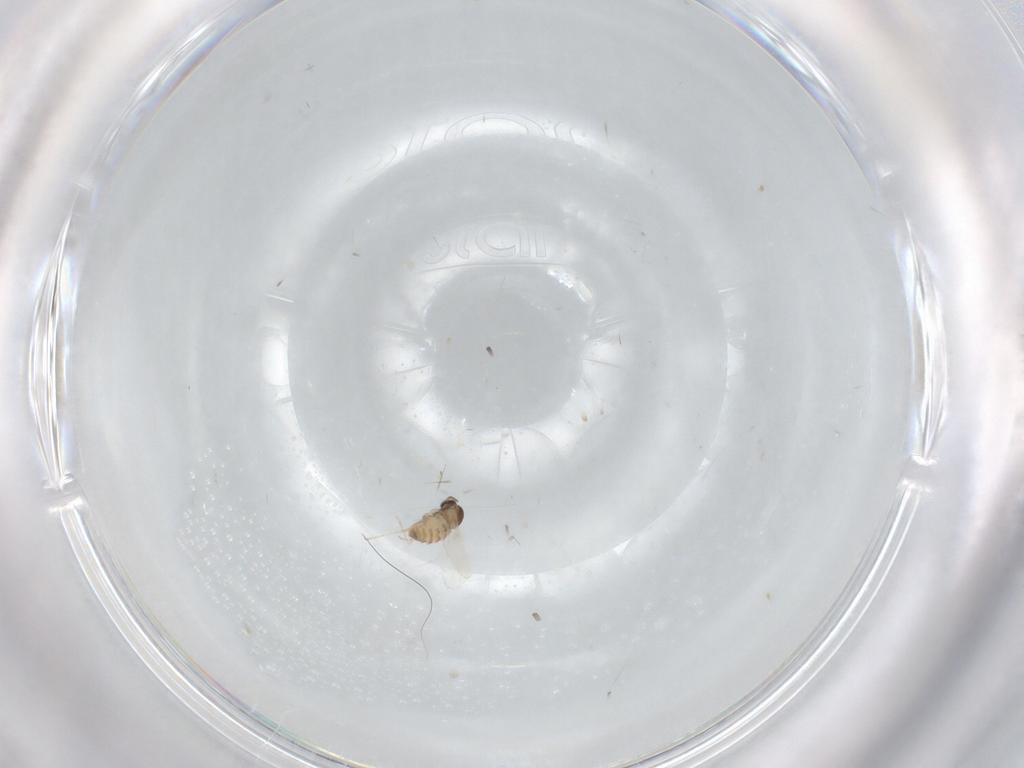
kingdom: Animalia
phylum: Arthropoda
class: Insecta
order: Diptera
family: Cecidomyiidae
